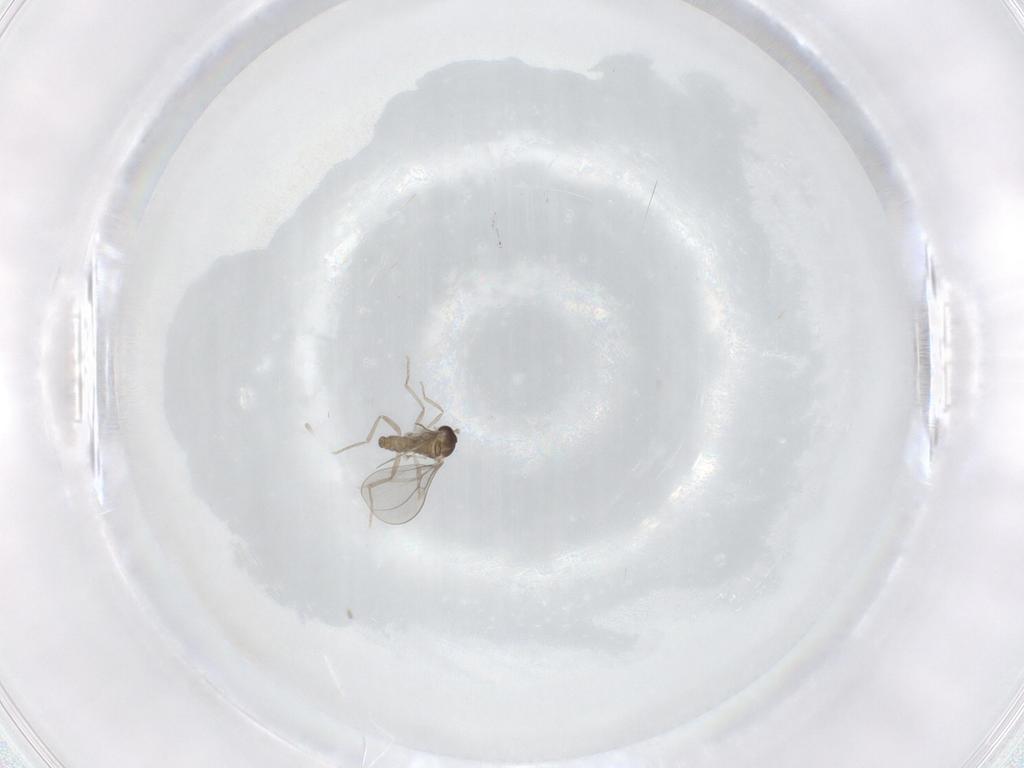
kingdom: Animalia
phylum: Arthropoda
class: Insecta
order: Diptera
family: Cecidomyiidae
